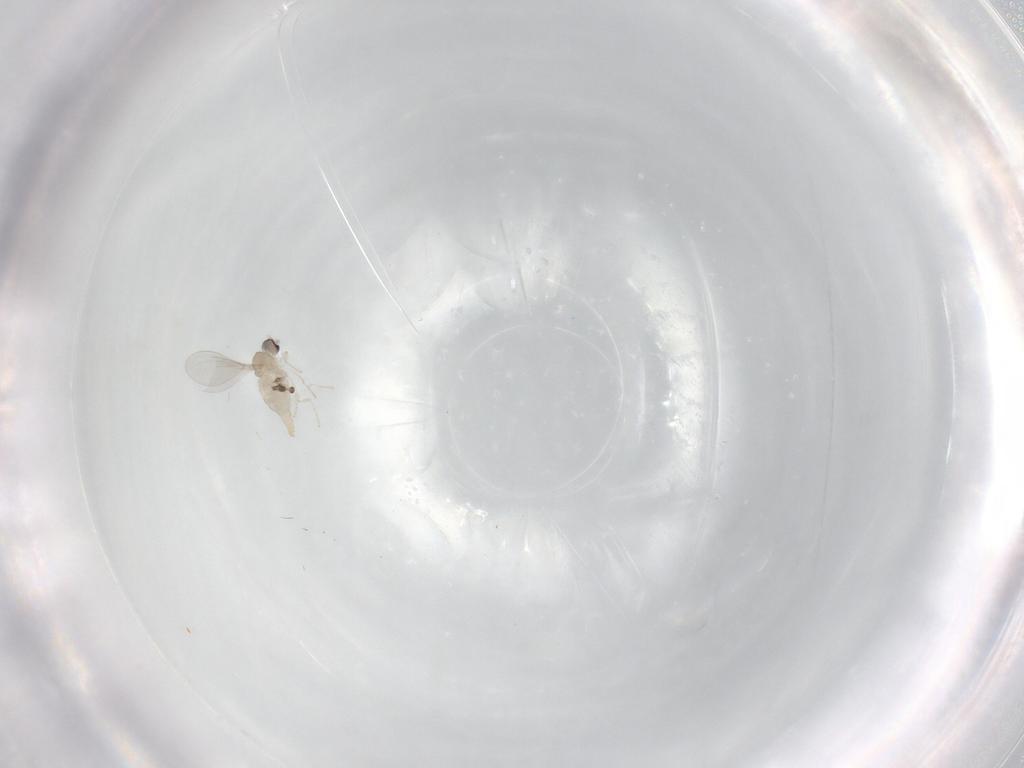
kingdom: Animalia
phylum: Arthropoda
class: Insecta
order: Diptera
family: Chironomidae
